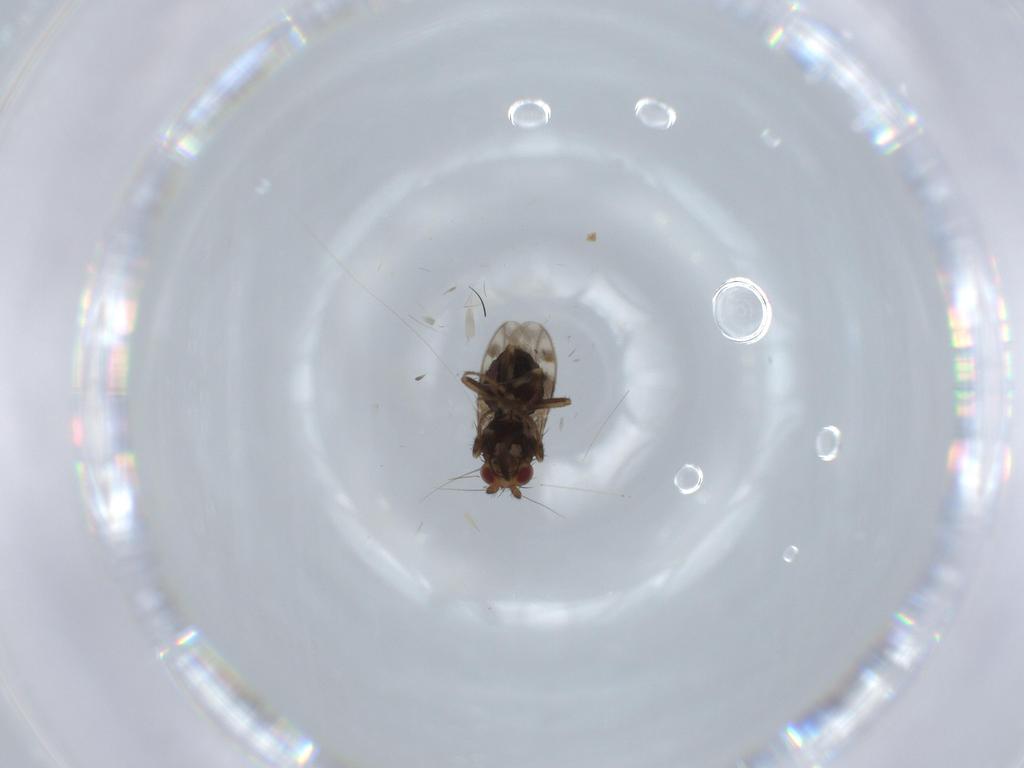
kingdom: Animalia
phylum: Arthropoda
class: Insecta
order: Diptera
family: Sphaeroceridae
